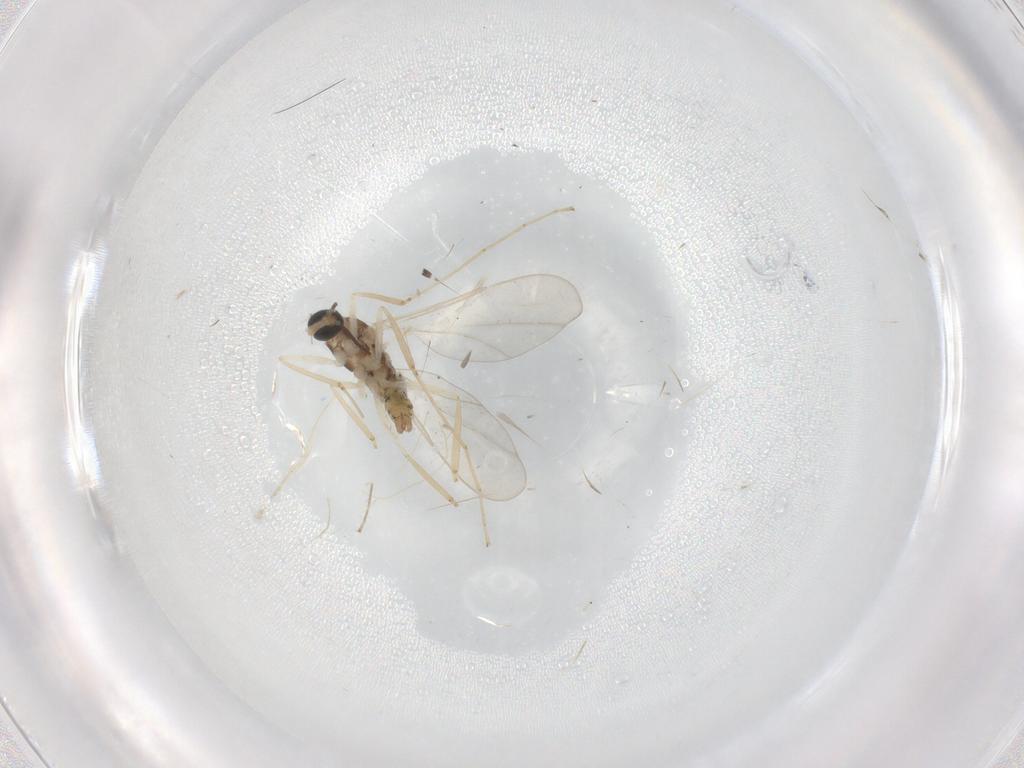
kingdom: Animalia
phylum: Arthropoda
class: Insecta
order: Diptera
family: Cecidomyiidae
